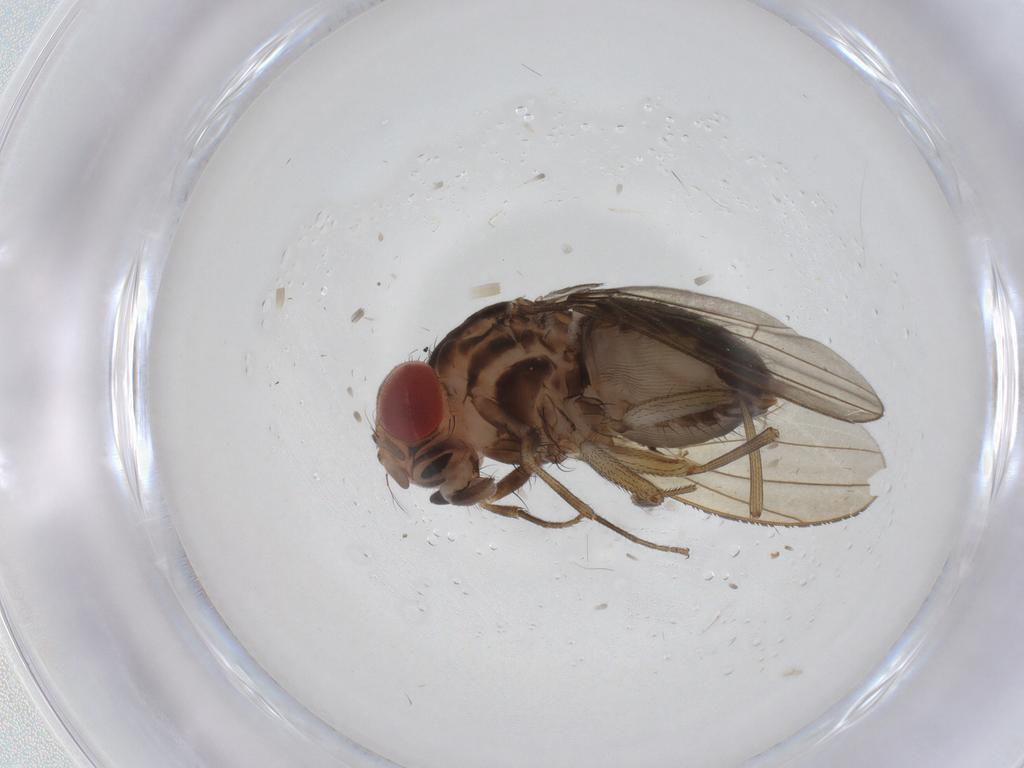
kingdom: Animalia
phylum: Arthropoda
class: Insecta
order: Diptera
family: Drosophilidae
